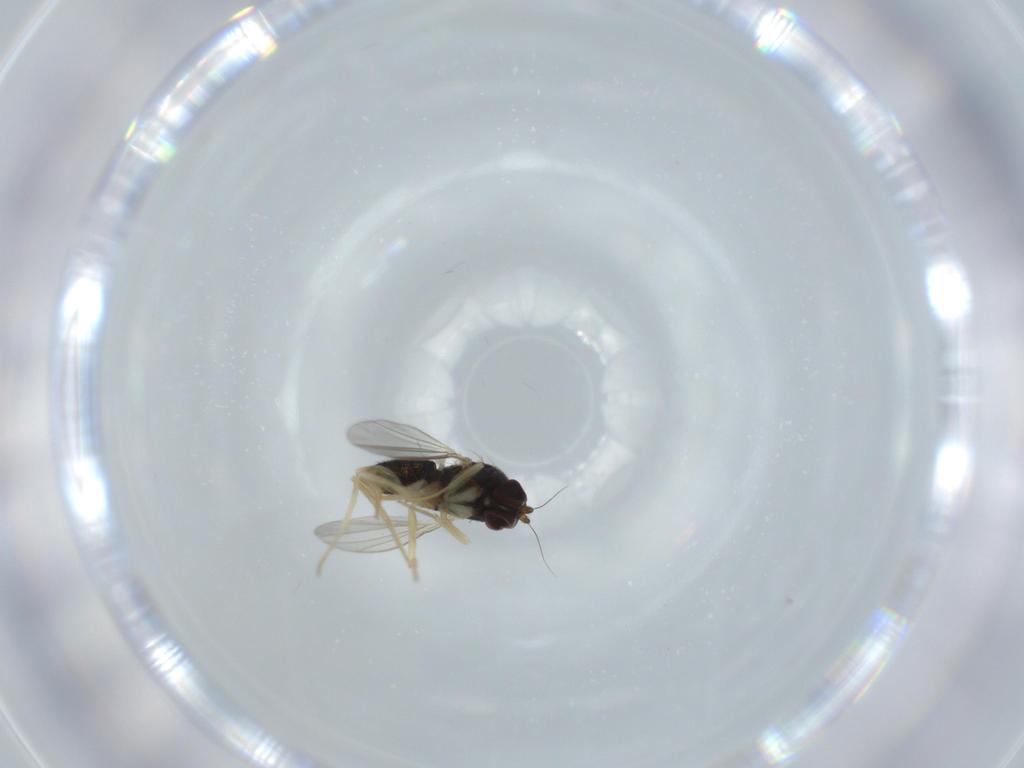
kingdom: Animalia
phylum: Arthropoda
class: Insecta
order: Diptera
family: Dolichopodidae
